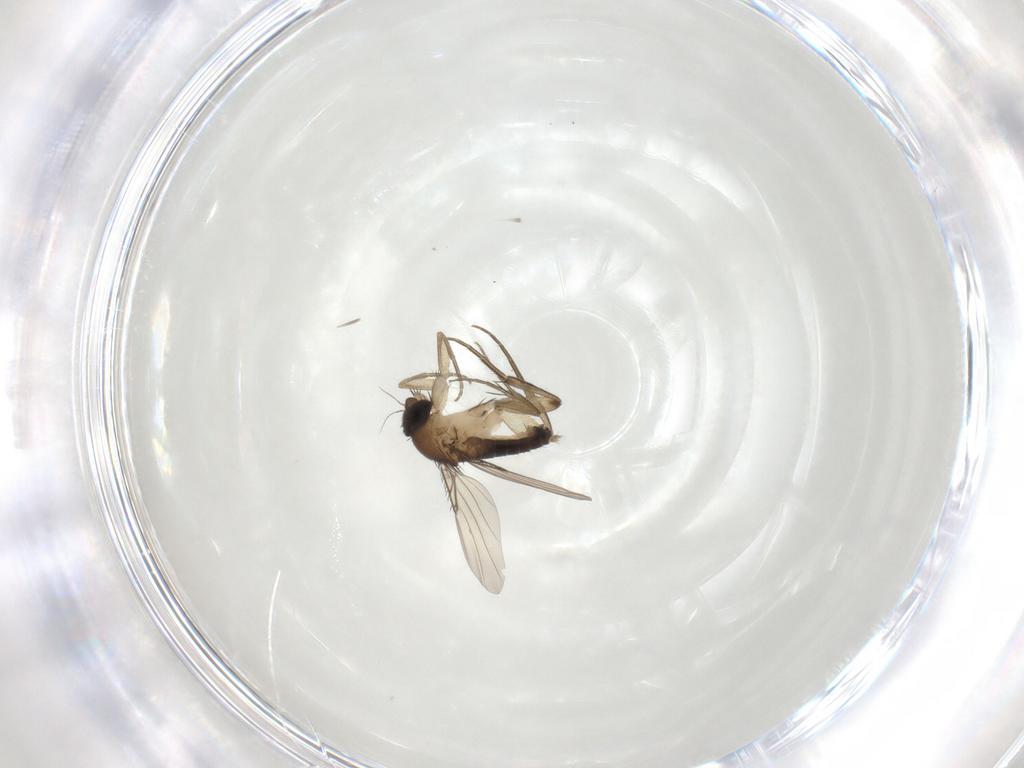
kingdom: Animalia
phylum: Arthropoda
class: Insecta
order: Diptera
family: Phoridae
